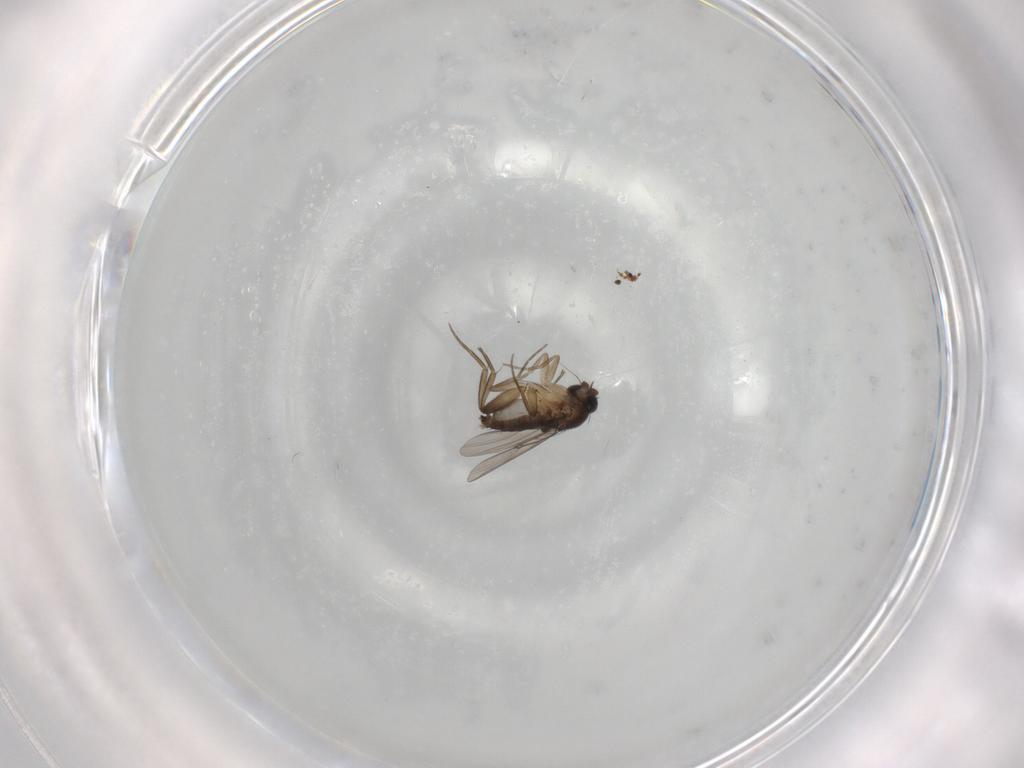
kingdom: Animalia
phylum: Arthropoda
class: Insecta
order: Diptera
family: Phoridae
